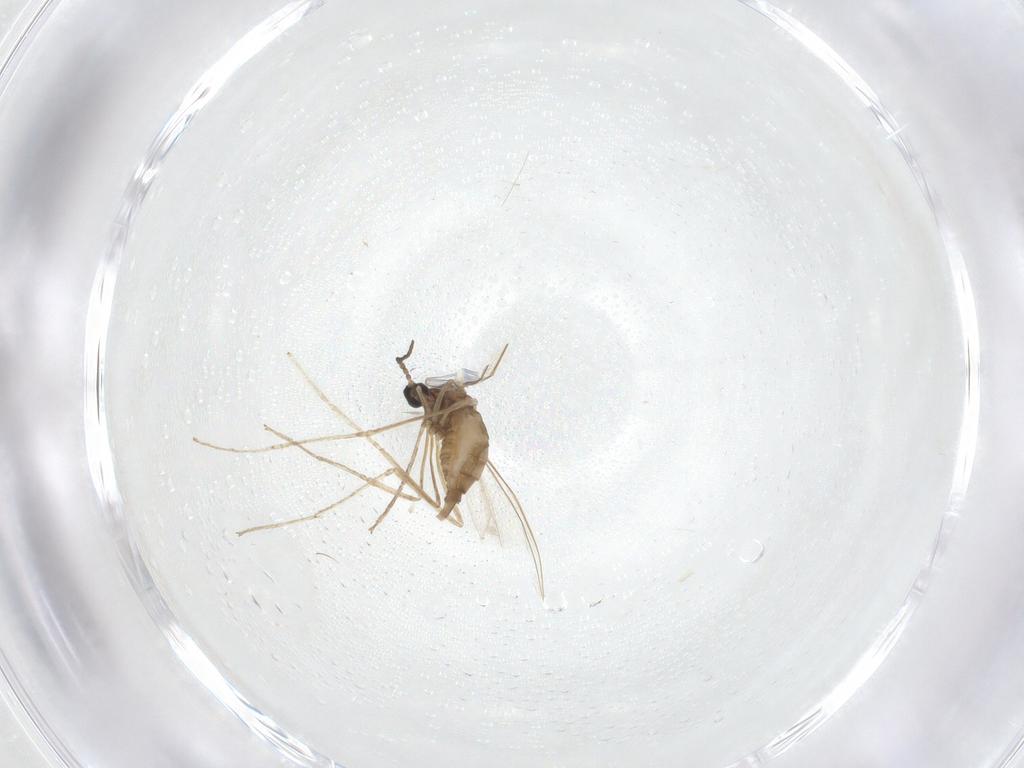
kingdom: Animalia
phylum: Arthropoda
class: Insecta
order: Diptera
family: Cecidomyiidae
